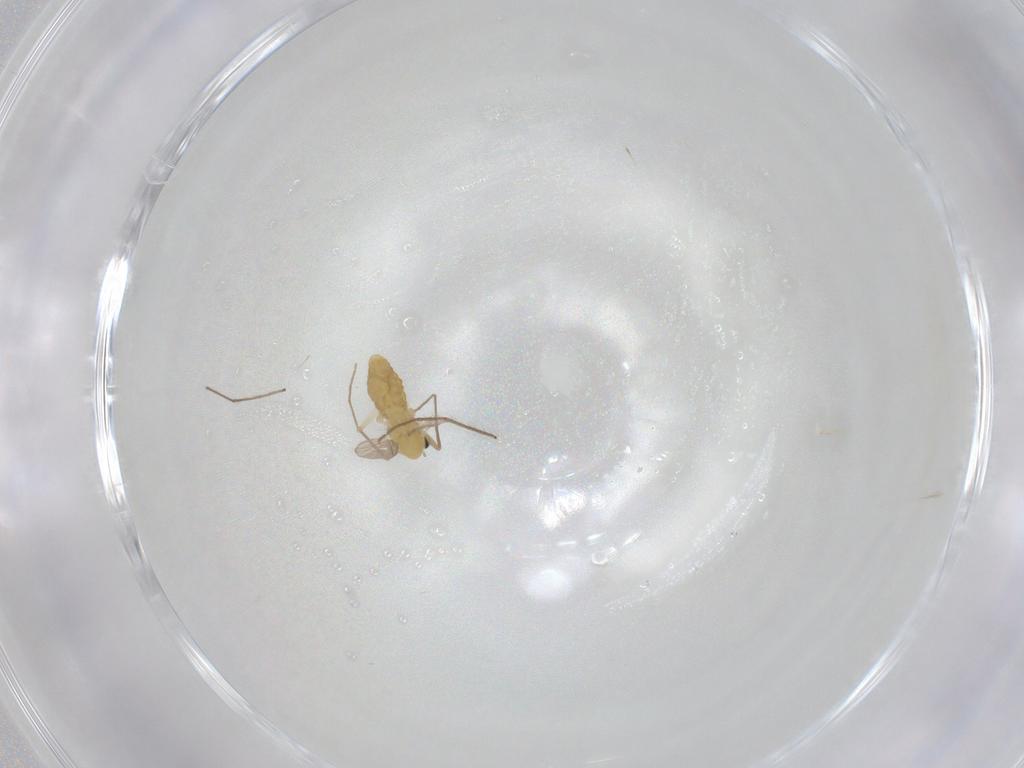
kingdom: Animalia
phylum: Arthropoda
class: Insecta
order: Diptera
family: Chironomidae
